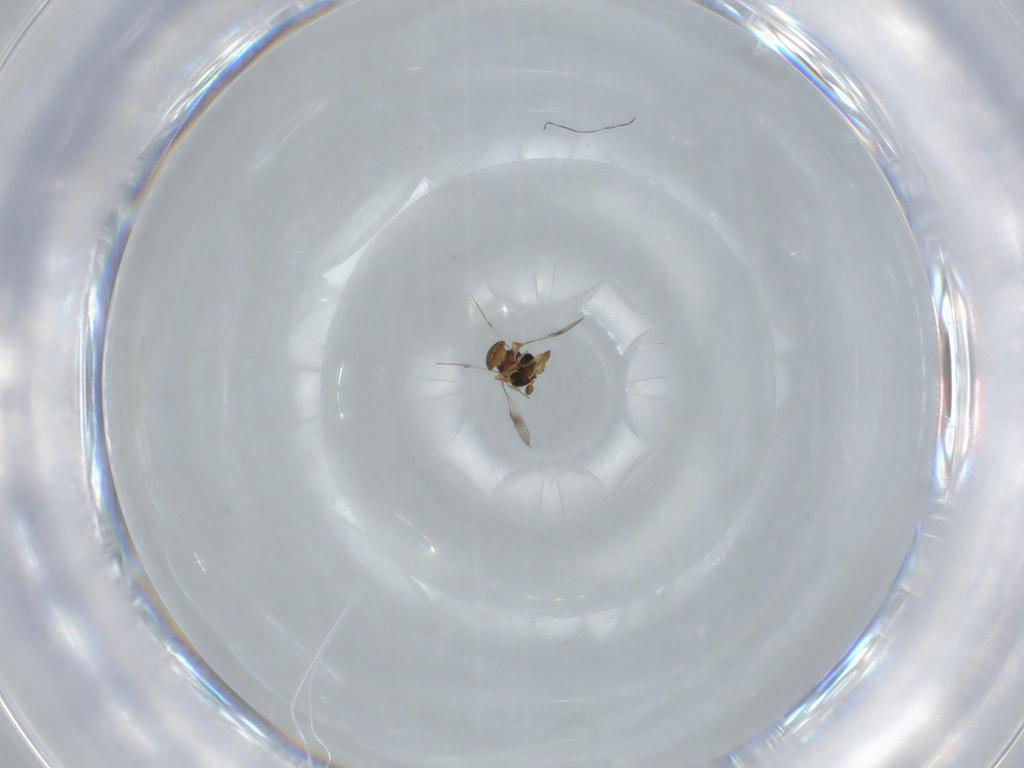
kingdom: Animalia
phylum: Arthropoda
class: Insecta
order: Hymenoptera
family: Scelionidae
